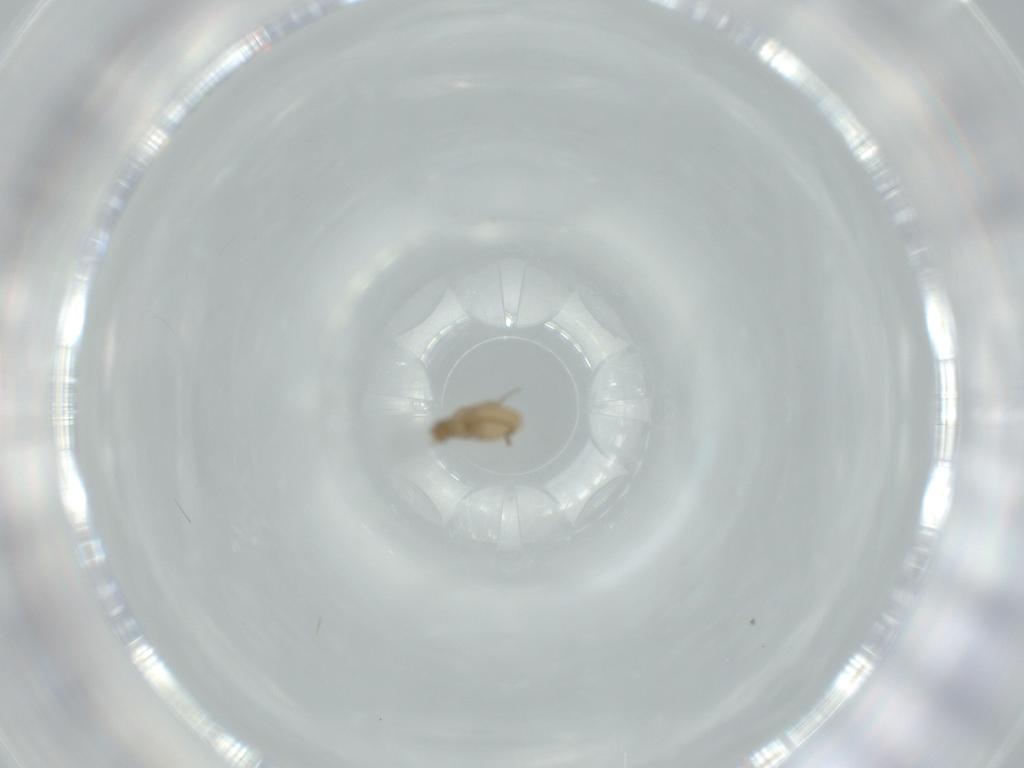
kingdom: Animalia
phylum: Arthropoda
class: Insecta
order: Diptera
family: Phoridae
